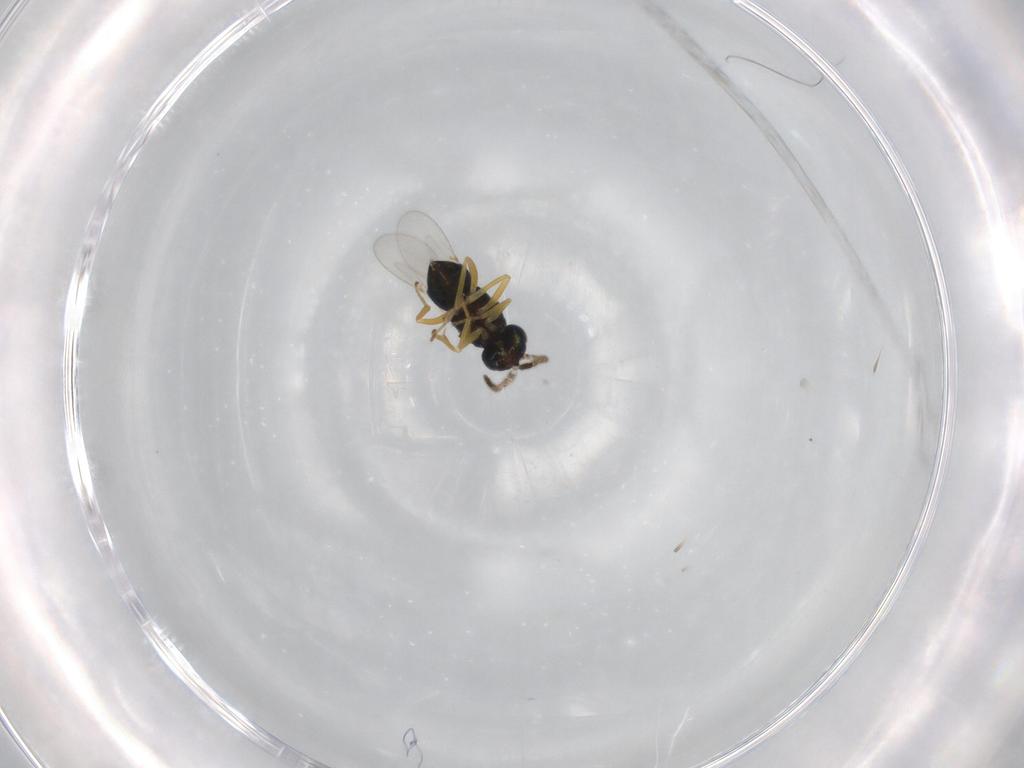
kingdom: Animalia
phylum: Arthropoda
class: Insecta
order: Hymenoptera
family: Encyrtidae
